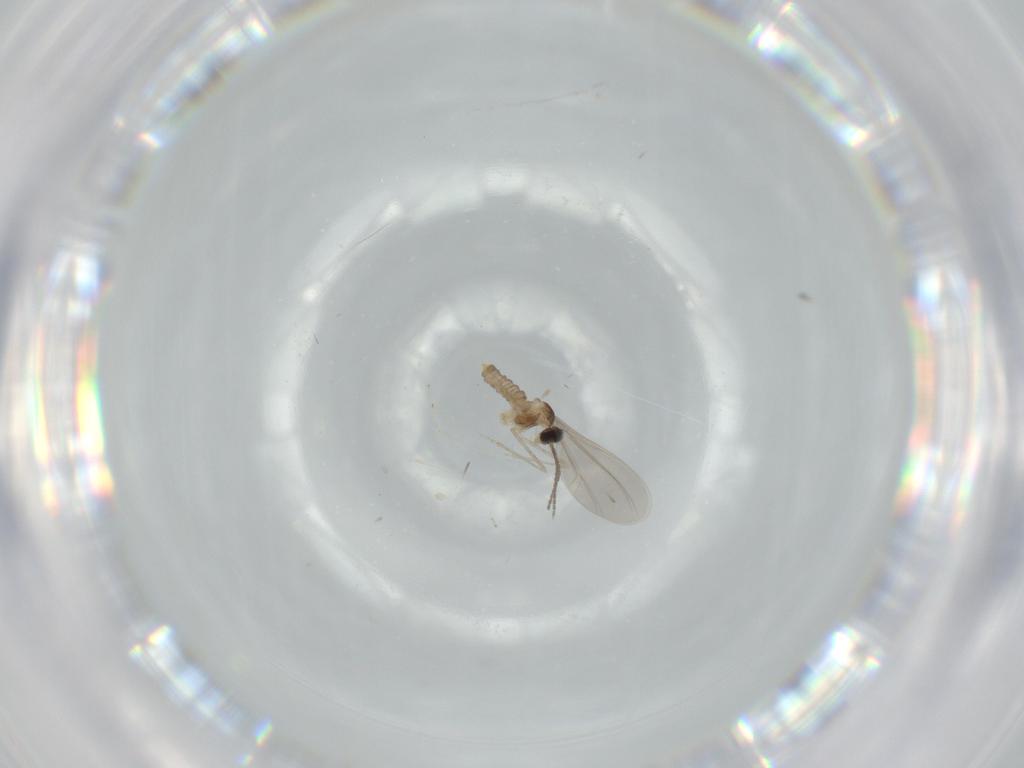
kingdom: Animalia
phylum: Arthropoda
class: Insecta
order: Diptera
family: Cecidomyiidae
